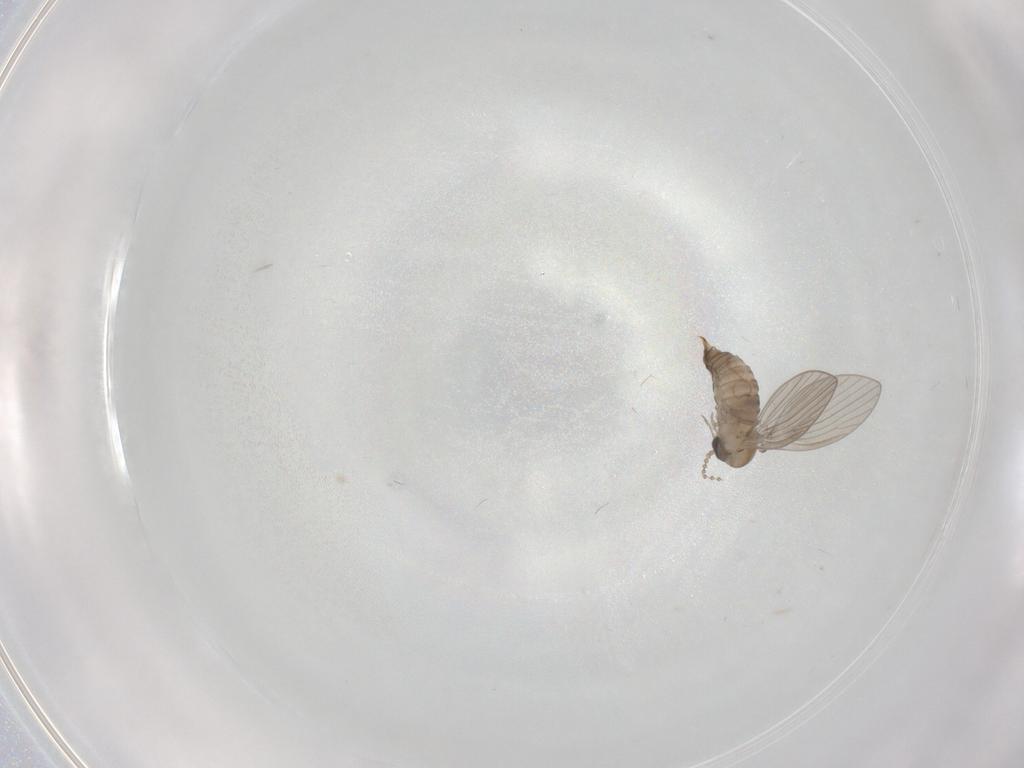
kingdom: Animalia
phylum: Arthropoda
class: Insecta
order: Diptera
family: Psychodidae
